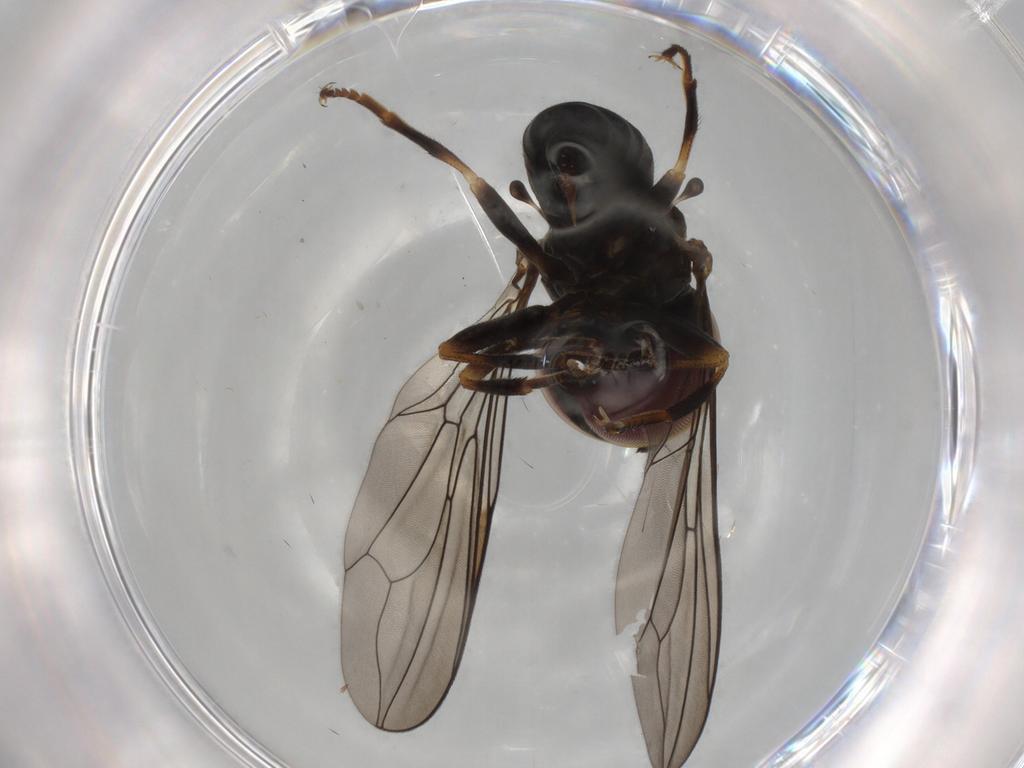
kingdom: Animalia
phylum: Arthropoda
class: Insecta
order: Diptera
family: Pipunculidae
